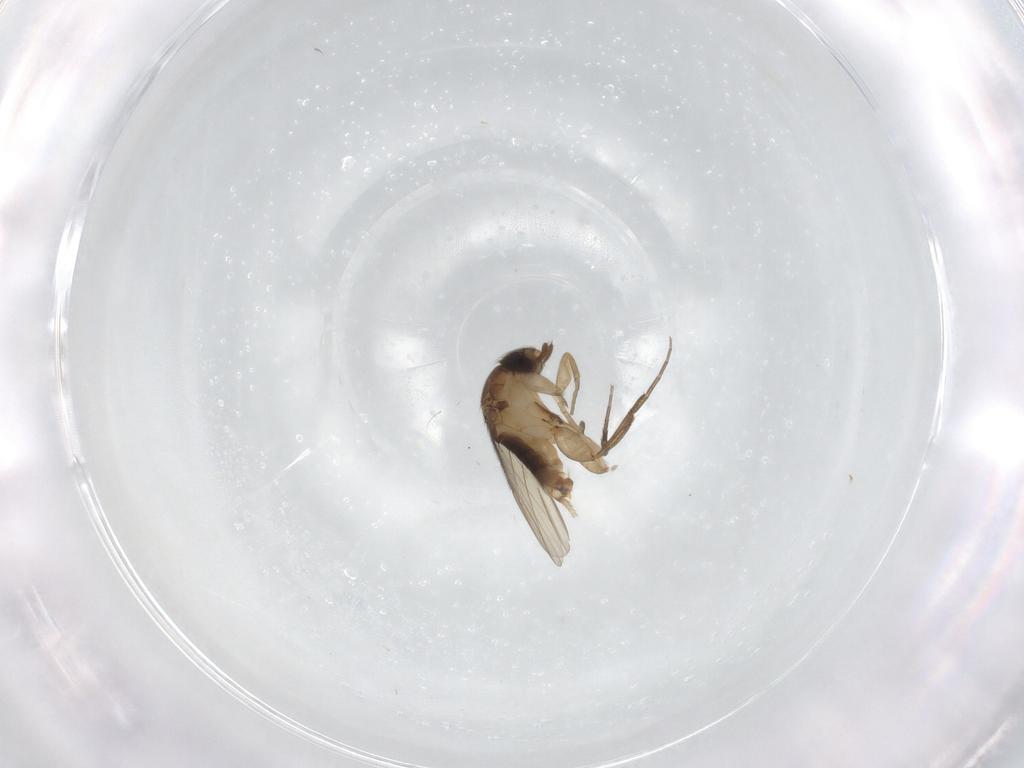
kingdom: Animalia
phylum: Arthropoda
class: Insecta
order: Diptera
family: Phoridae
